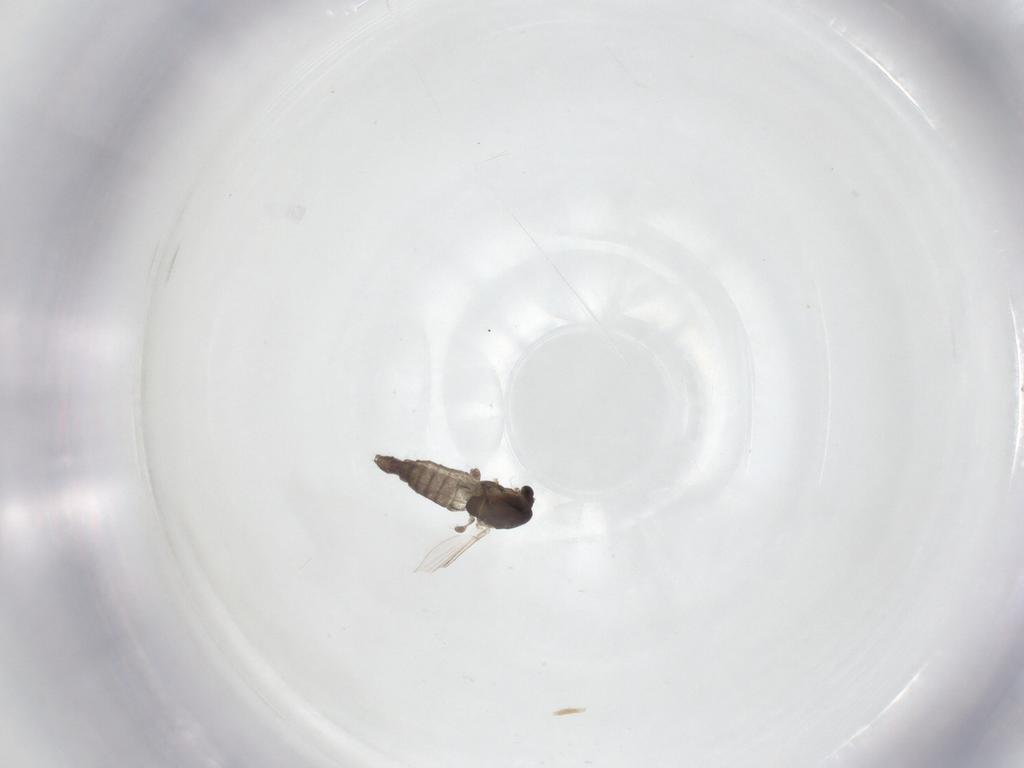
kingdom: Animalia
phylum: Arthropoda
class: Insecta
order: Diptera
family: Chironomidae
